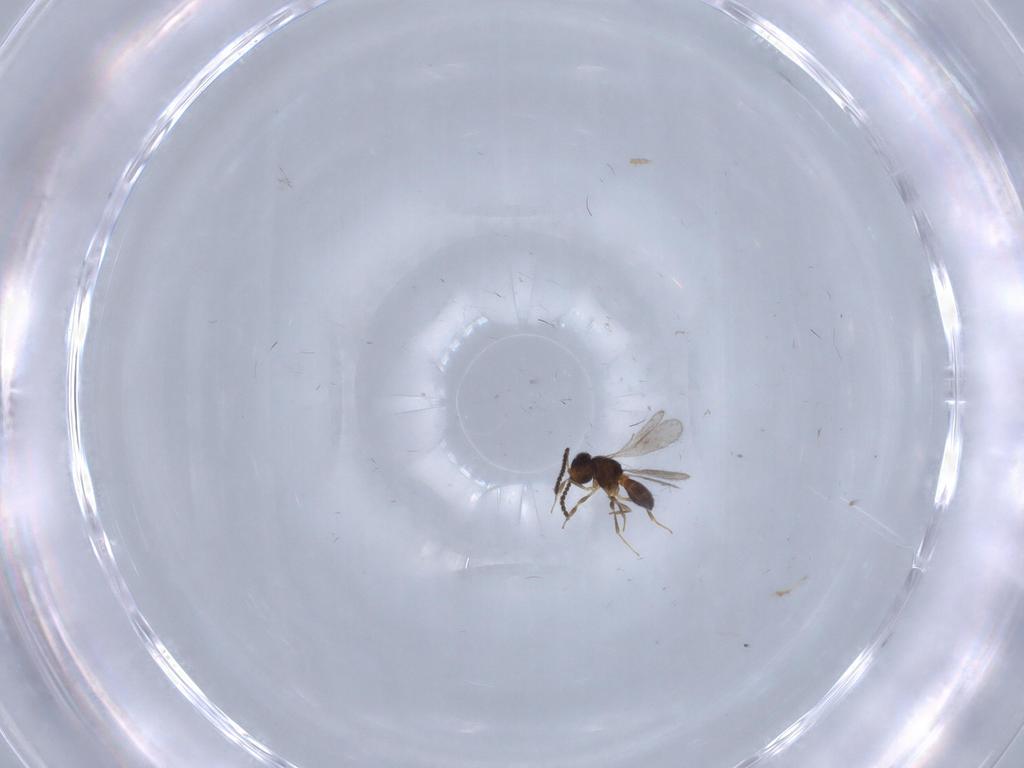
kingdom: Animalia
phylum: Arthropoda
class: Insecta
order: Hymenoptera
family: Scelionidae
